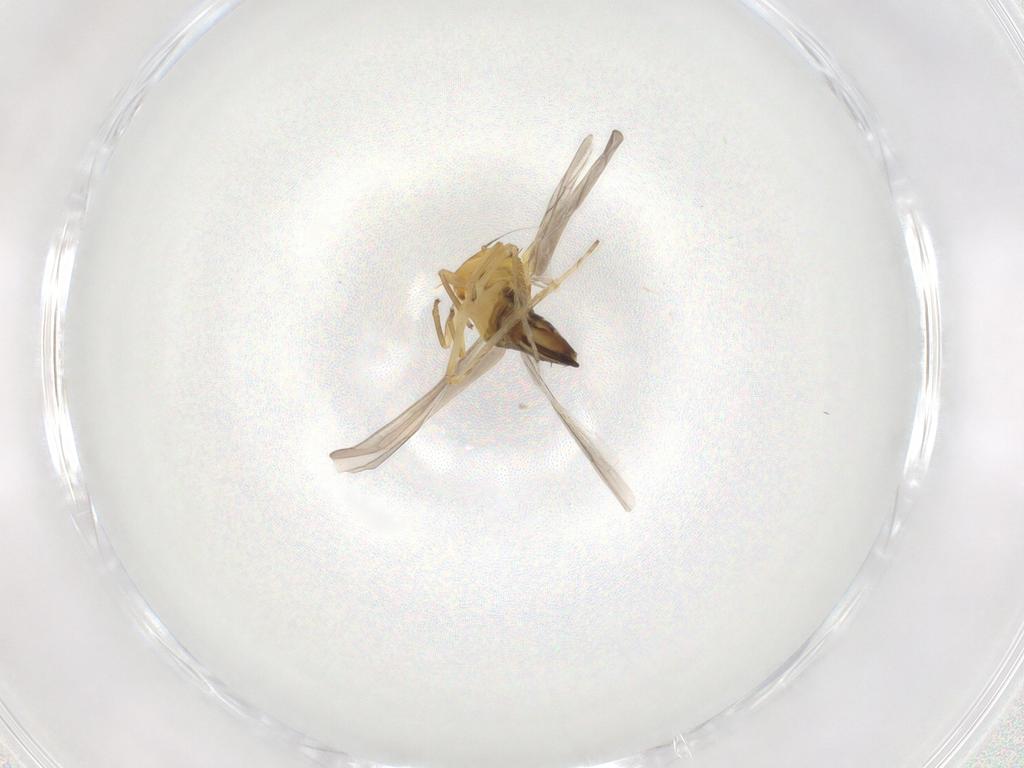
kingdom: Animalia
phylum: Arthropoda
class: Insecta
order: Hemiptera
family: Cicadellidae
